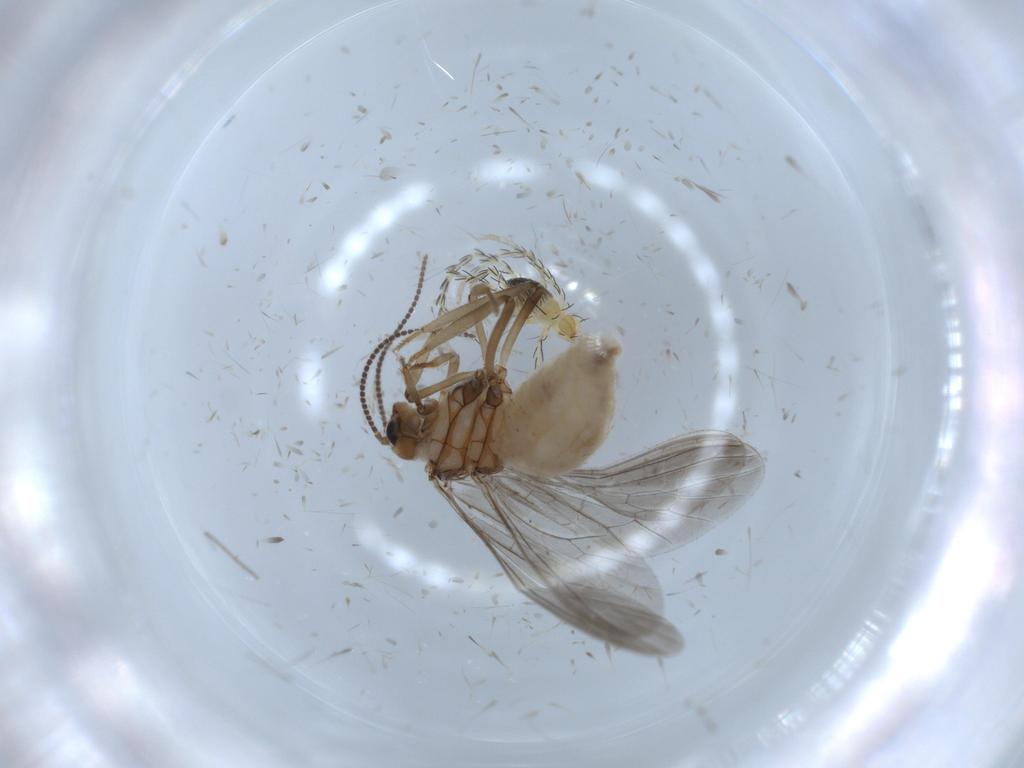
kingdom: Animalia
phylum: Arthropoda
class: Insecta
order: Neuroptera
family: Coniopterygidae
